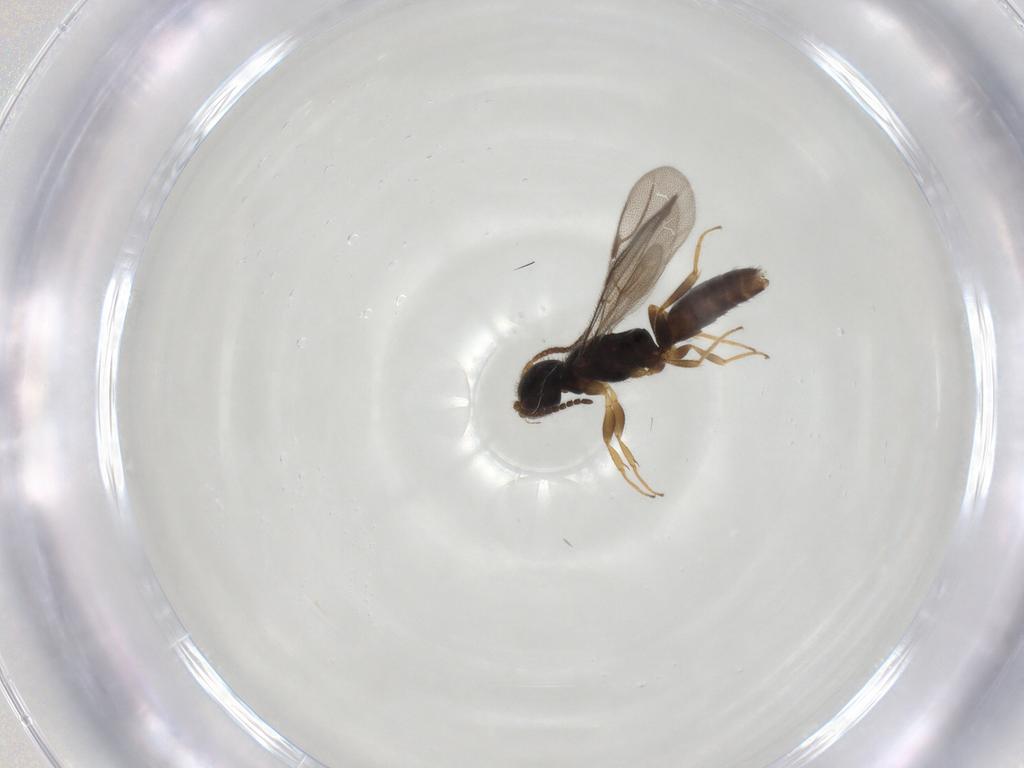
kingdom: Animalia
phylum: Arthropoda
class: Insecta
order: Hymenoptera
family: Bethylidae
